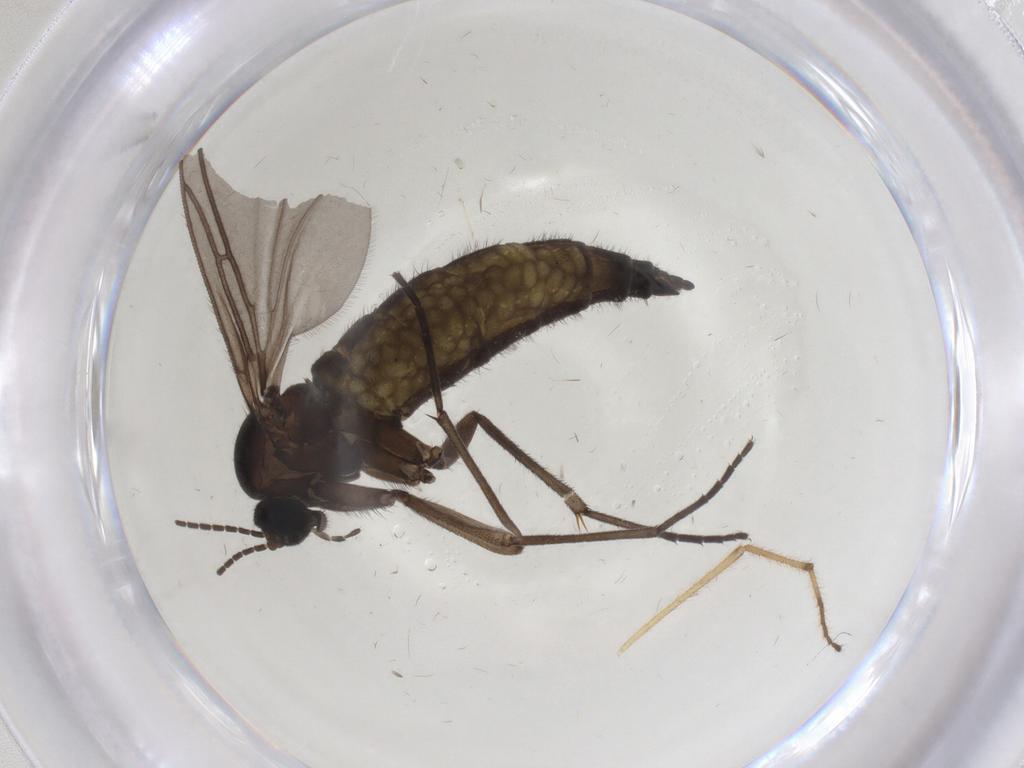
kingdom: Animalia
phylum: Arthropoda
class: Insecta
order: Diptera
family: Sciaridae
